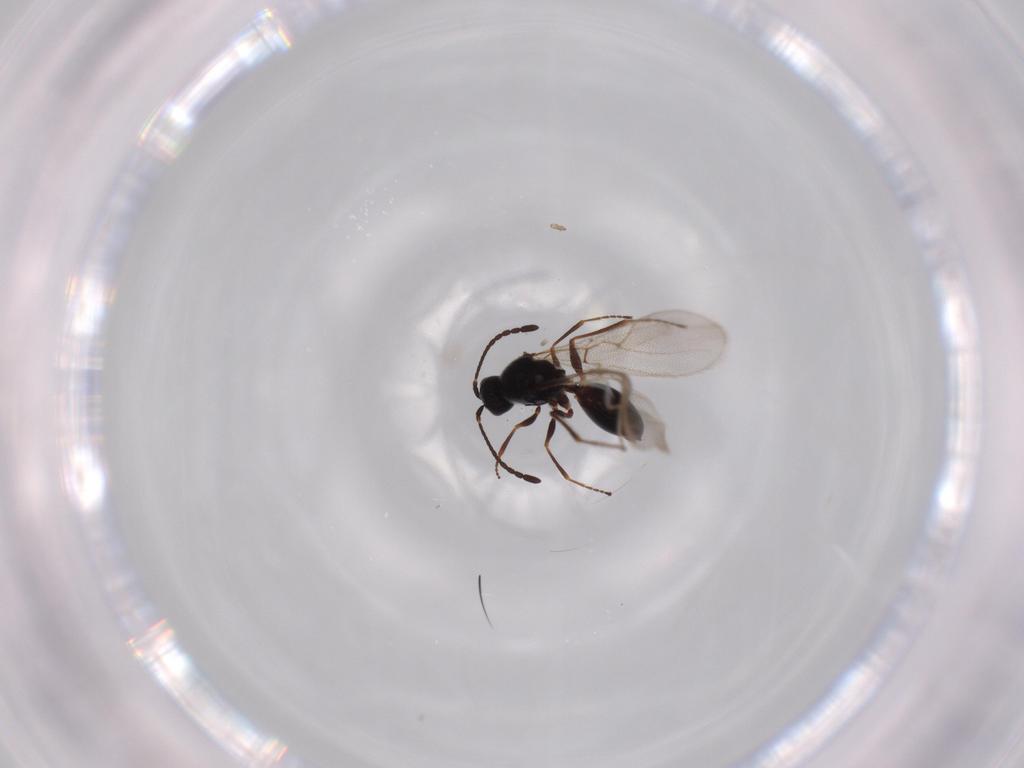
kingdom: Animalia
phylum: Arthropoda
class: Insecta
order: Hymenoptera
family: Figitidae
